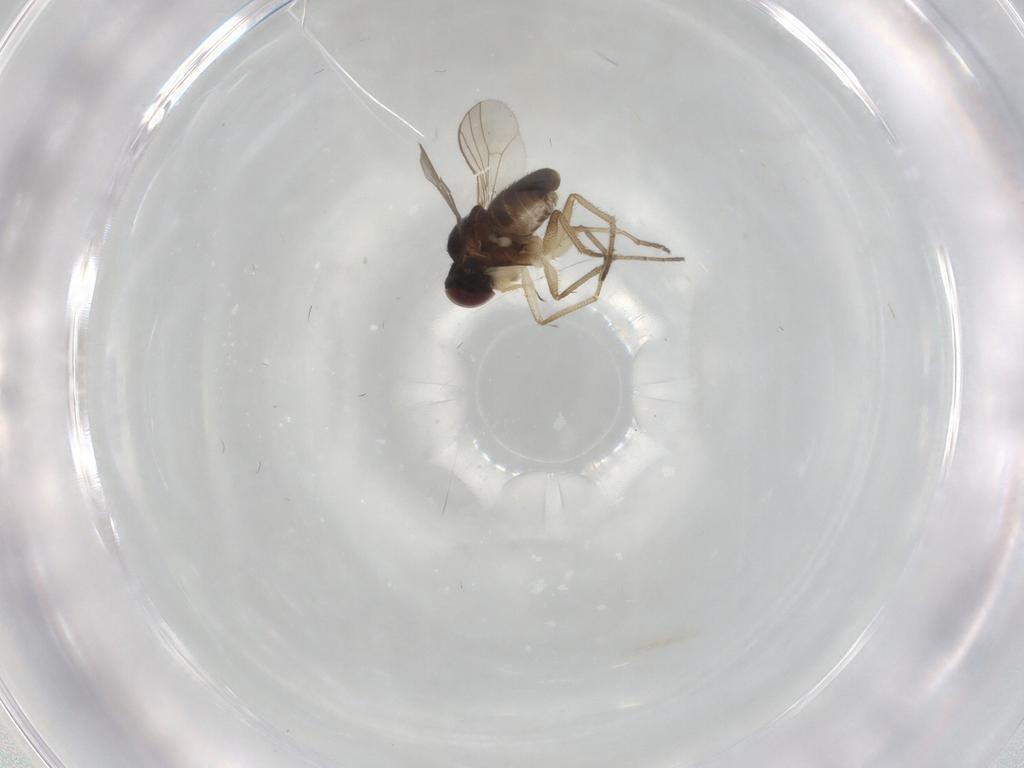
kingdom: Animalia
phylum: Arthropoda
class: Insecta
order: Diptera
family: Dolichopodidae
